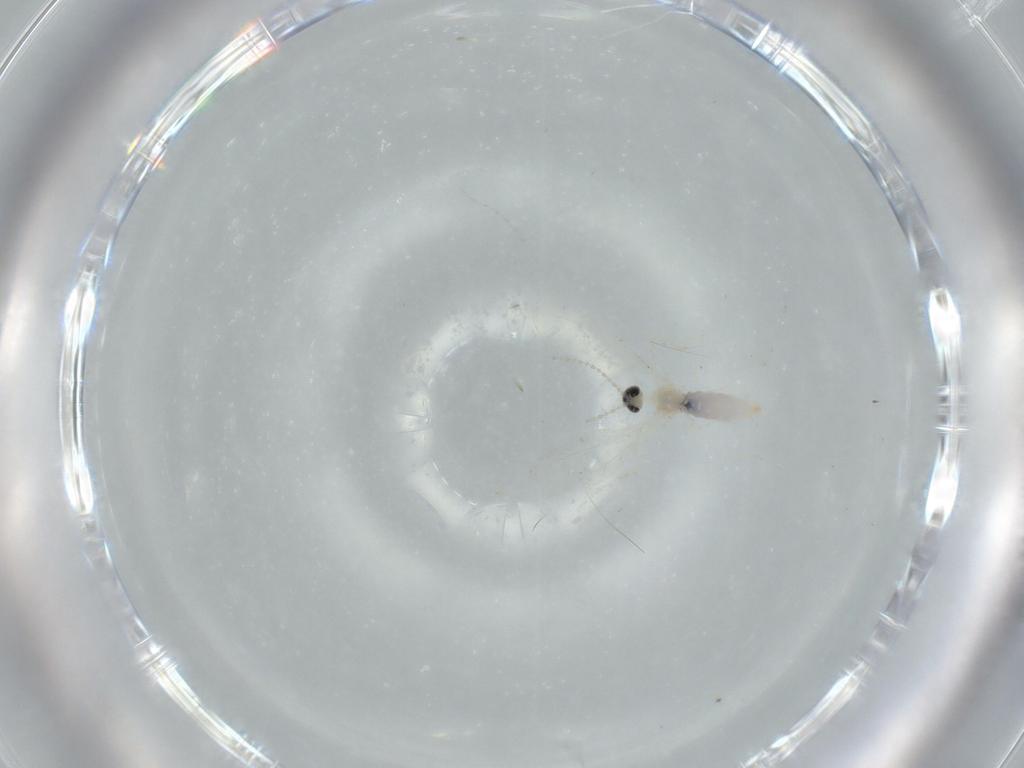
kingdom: Animalia
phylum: Arthropoda
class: Insecta
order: Diptera
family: Cecidomyiidae
